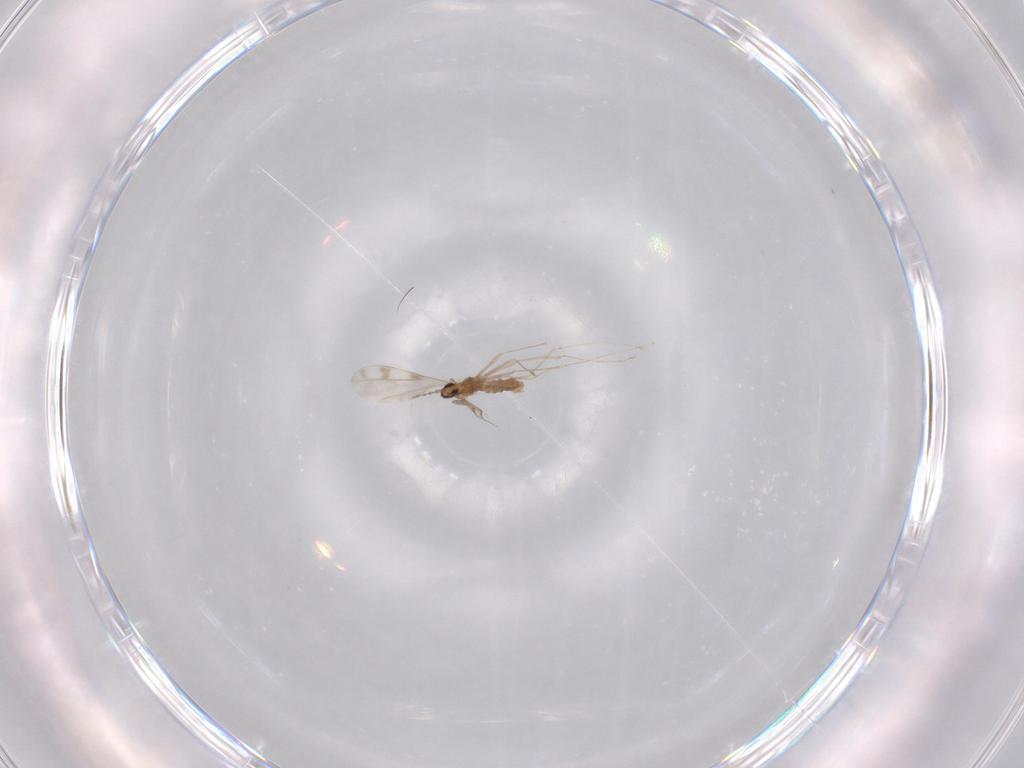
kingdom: Animalia
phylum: Arthropoda
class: Insecta
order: Diptera
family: Cecidomyiidae
